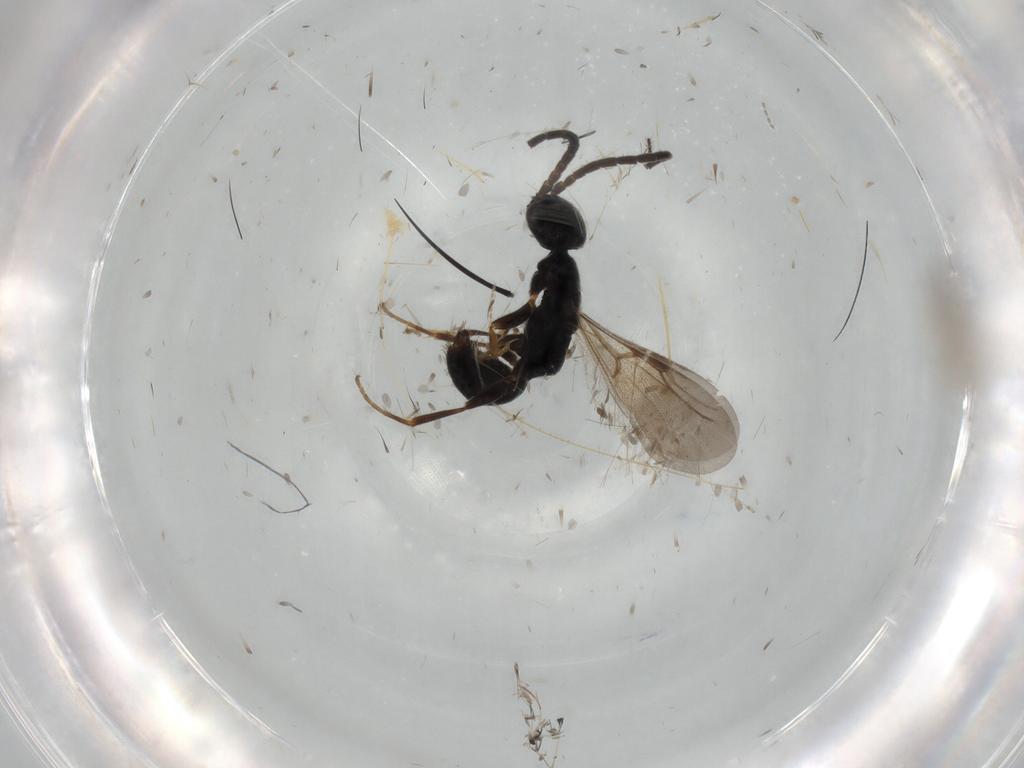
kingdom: Animalia
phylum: Arthropoda
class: Insecta
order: Hymenoptera
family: Bethylidae
